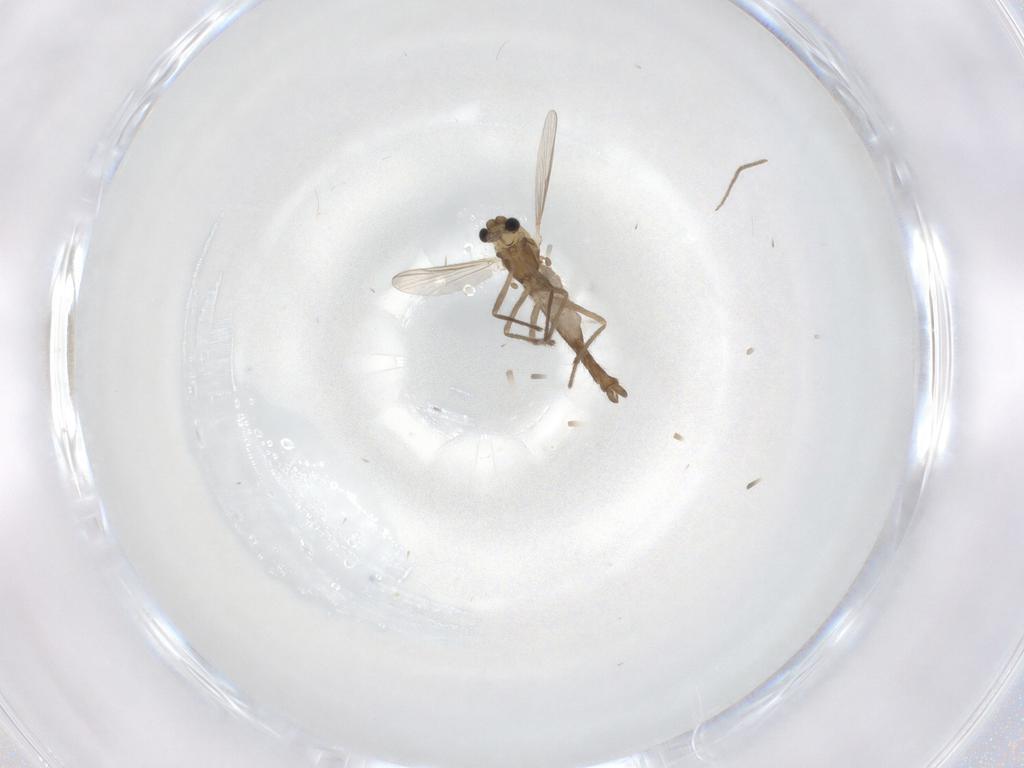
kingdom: Animalia
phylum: Arthropoda
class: Insecta
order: Diptera
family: Chironomidae
